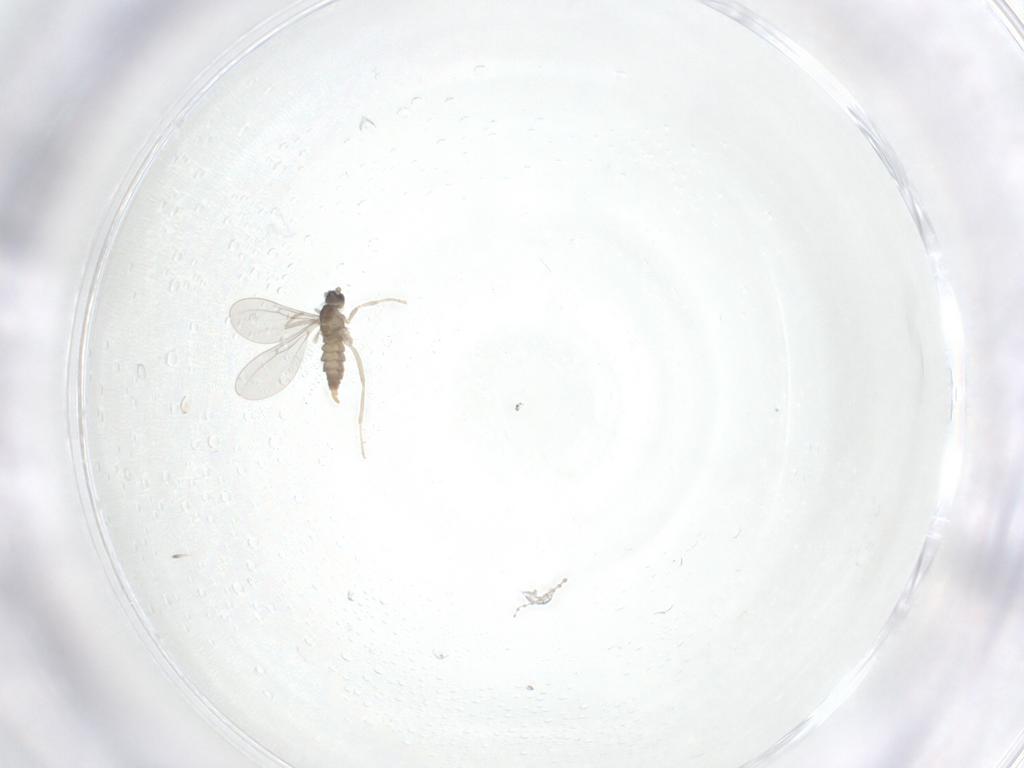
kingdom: Animalia
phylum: Arthropoda
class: Insecta
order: Diptera
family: Cecidomyiidae
